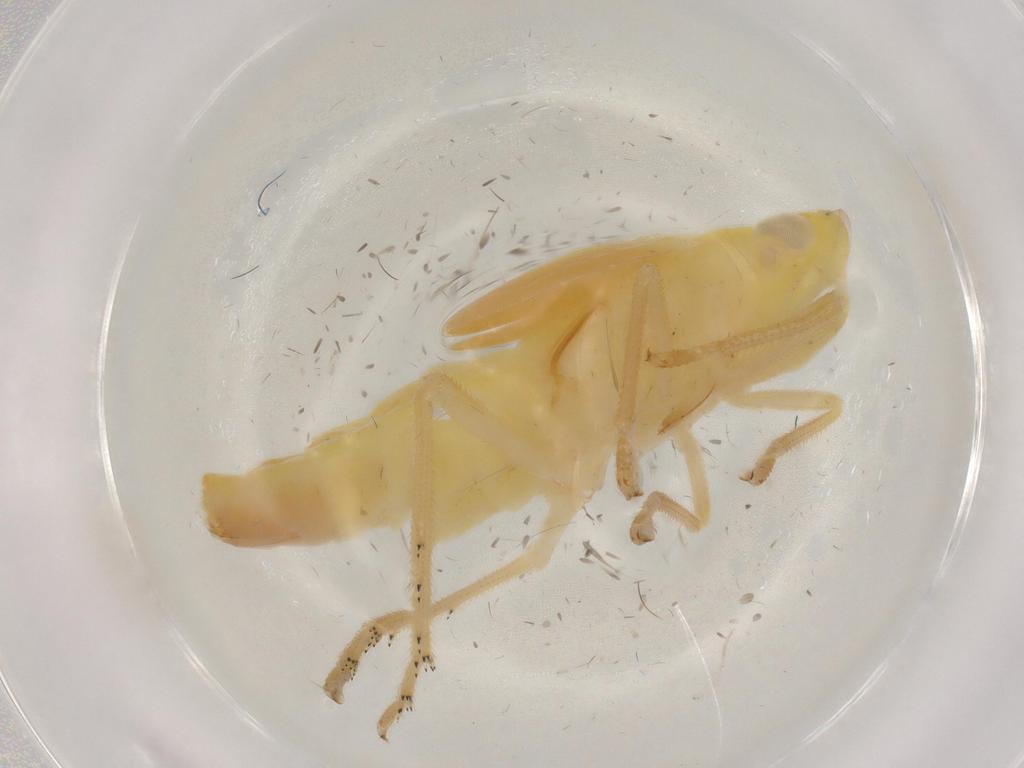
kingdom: Animalia
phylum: Arthropoda
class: Insecta
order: Hemiptera
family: Fulgoroidea_incertae_sedis
